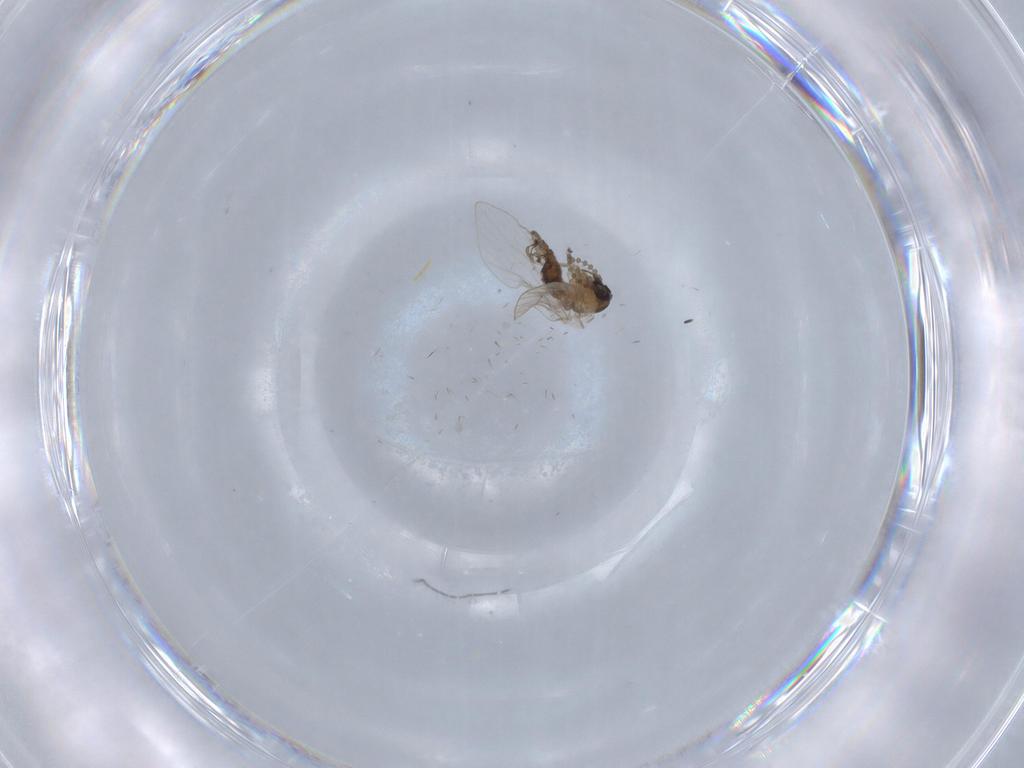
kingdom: Animalia
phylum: Arthropoda
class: Insecta
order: Diptera
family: Psychodidae
